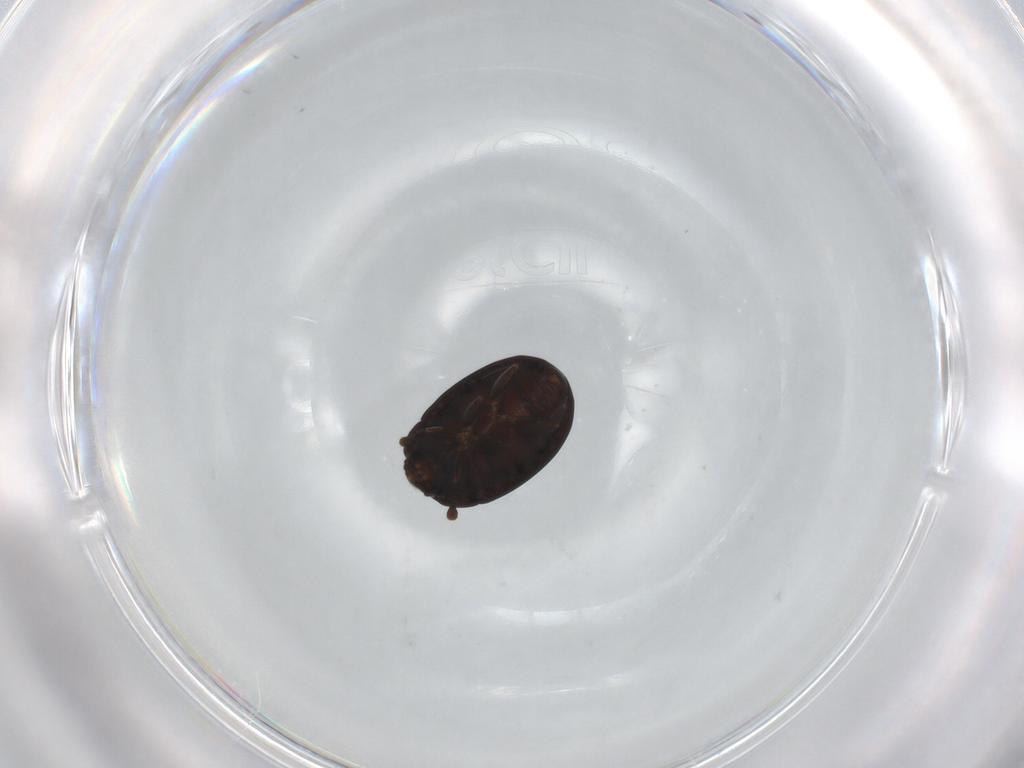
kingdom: Animalia
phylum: Arthropoda
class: Insecta
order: Coleoptera
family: Discolomatidae
